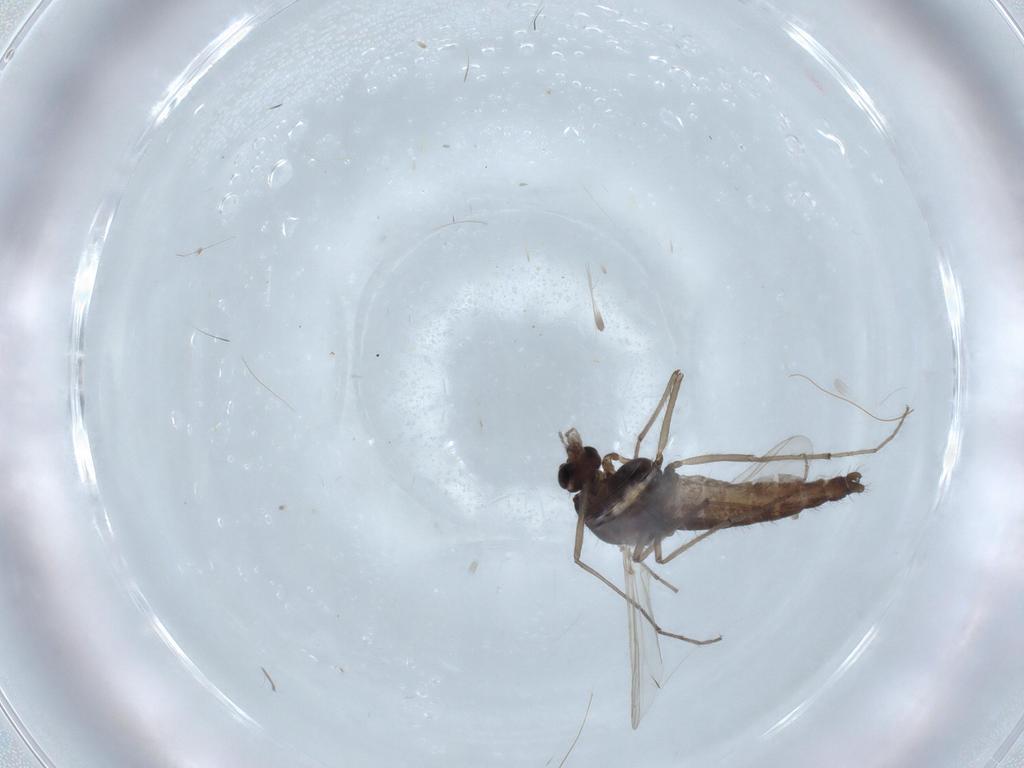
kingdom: Animalia
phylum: Arthropoda
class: Insecta
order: Diptera
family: Chironomidae
